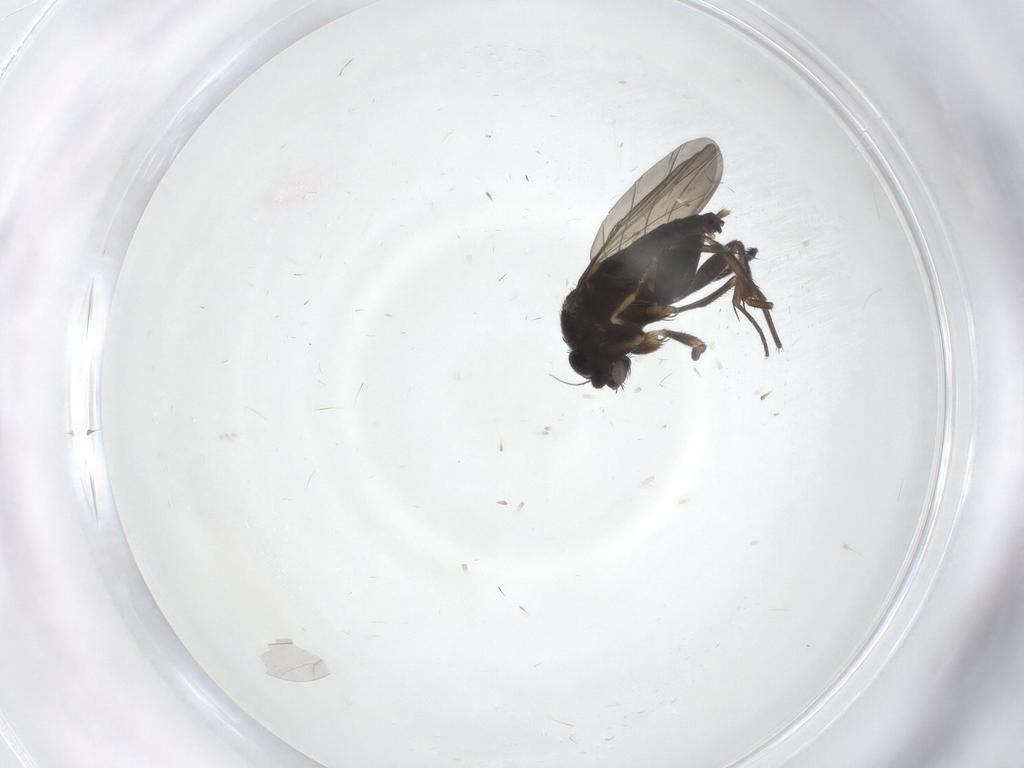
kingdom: Animalia
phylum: Arthropoda
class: Insecta
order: Diptera
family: Phoridae
